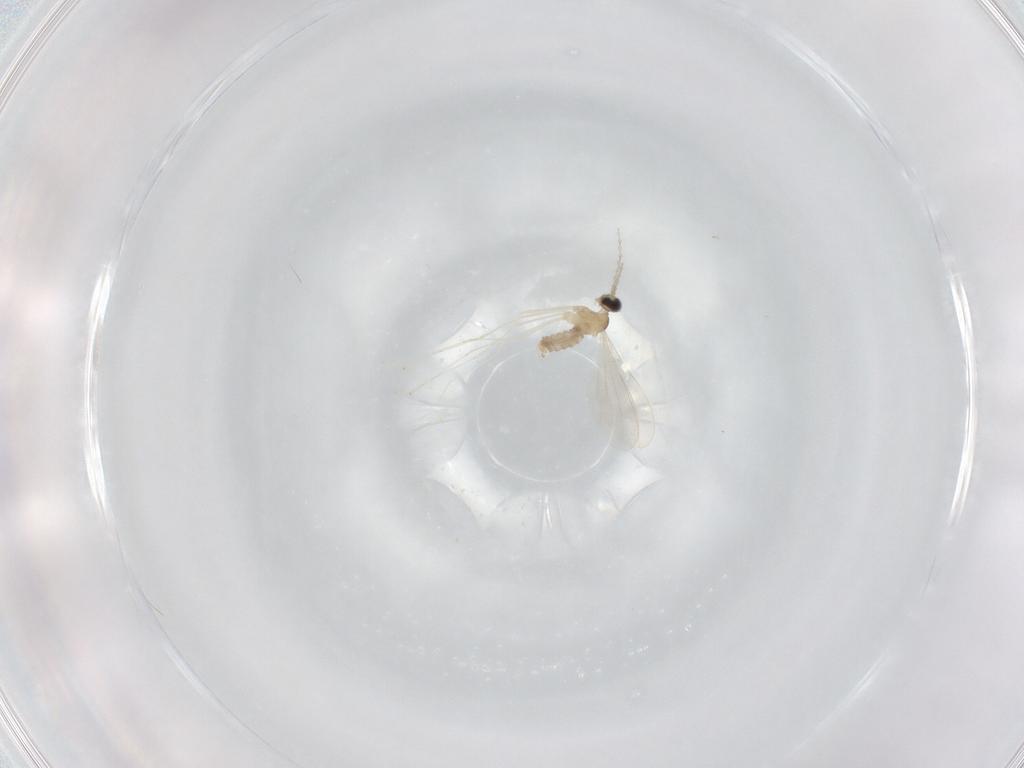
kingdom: Animalia
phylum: Arthropoda
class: Insecta
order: Diptera
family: Cecidomyiidae
